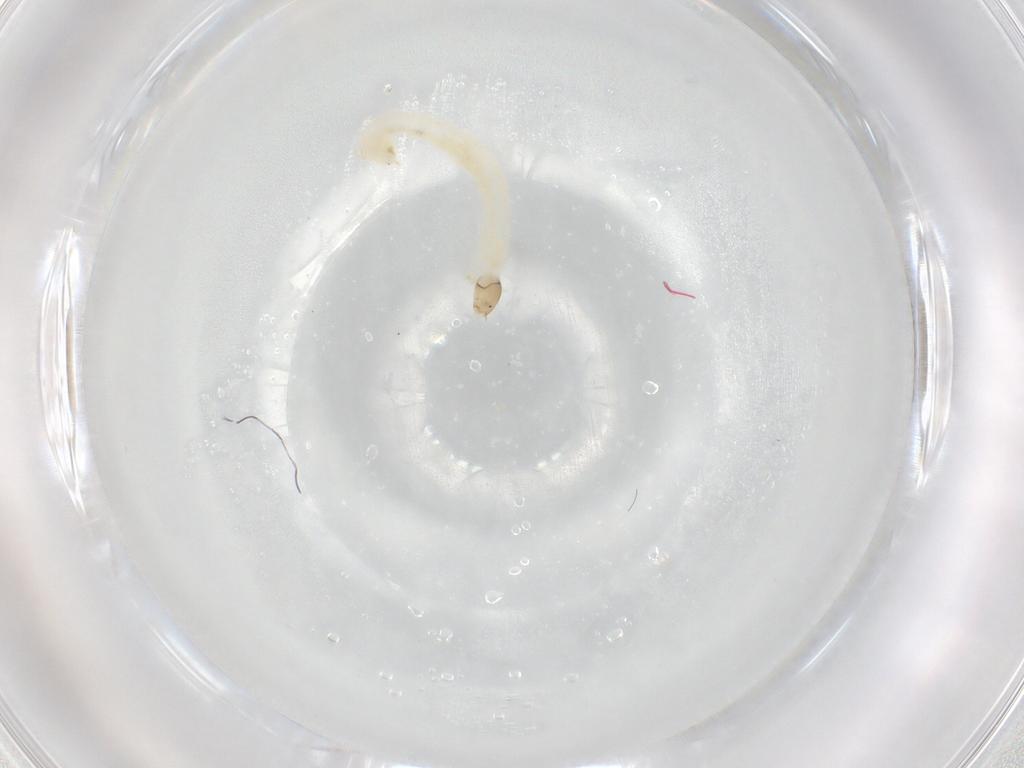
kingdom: Animalia
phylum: Arthropoda
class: Insecta
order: Diptera
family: Chironomidae
